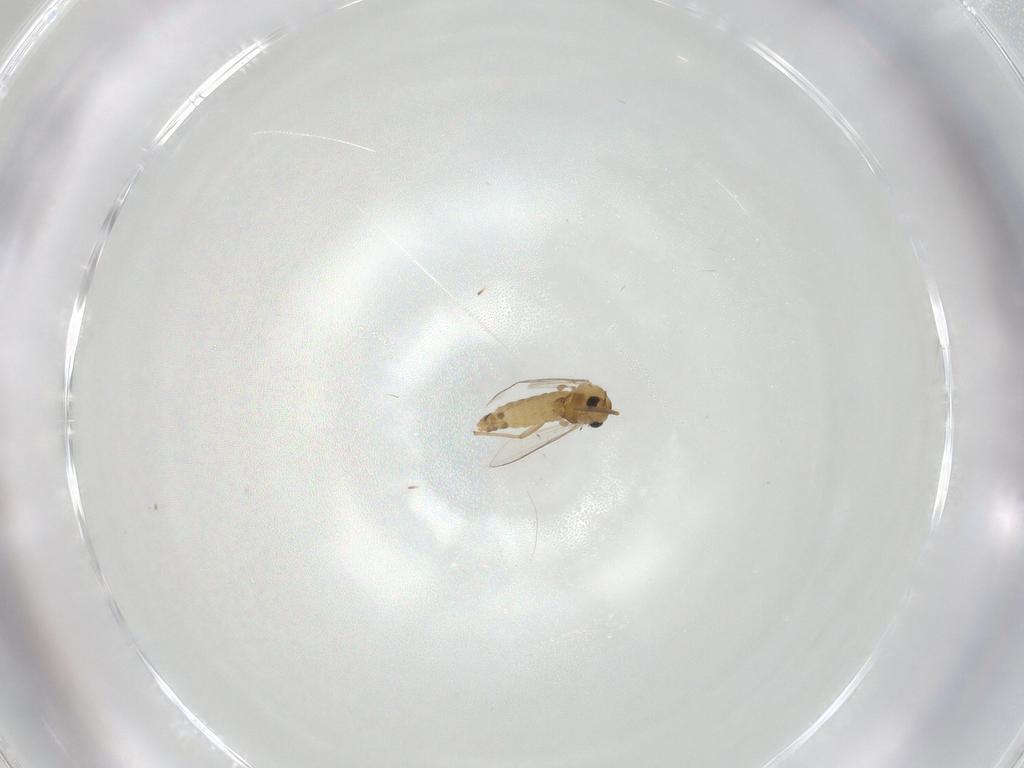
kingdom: Animalia
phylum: Arthropoda
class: Insecta
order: Diptera
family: Chironomidae
